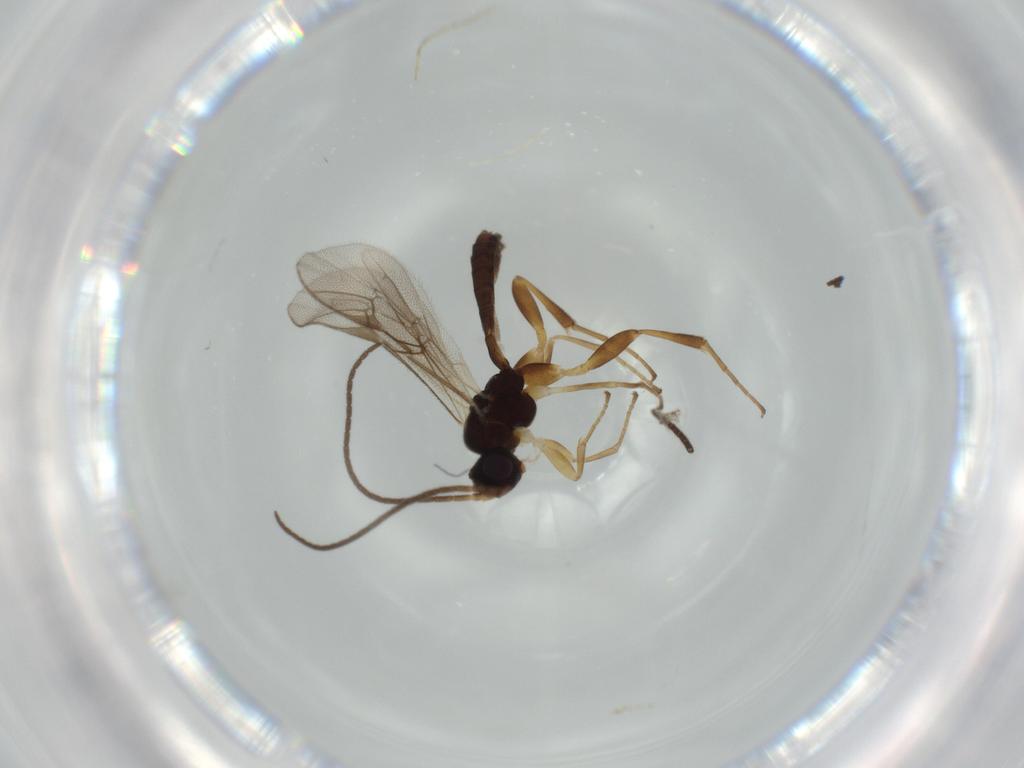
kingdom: Animalia
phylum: Arthropoda
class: Insecta
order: Hymenoptera
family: Ichneumonidae
